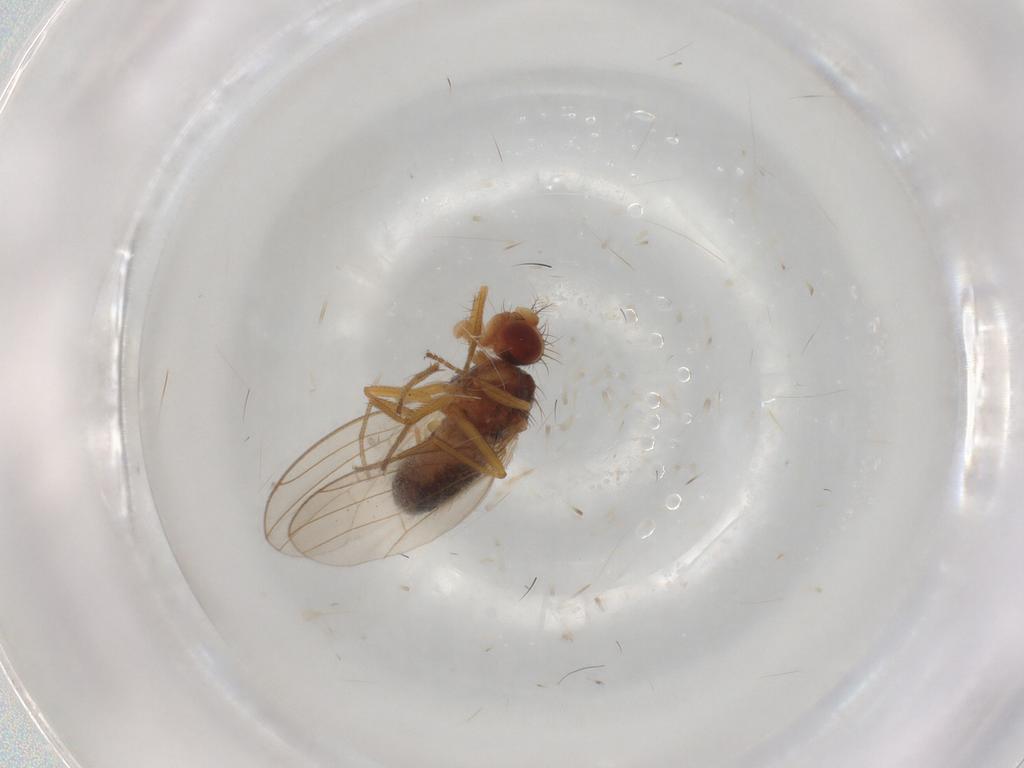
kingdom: Animalia
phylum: Arthropoda
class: Insecta
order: Diptera
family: Drosophilidae
